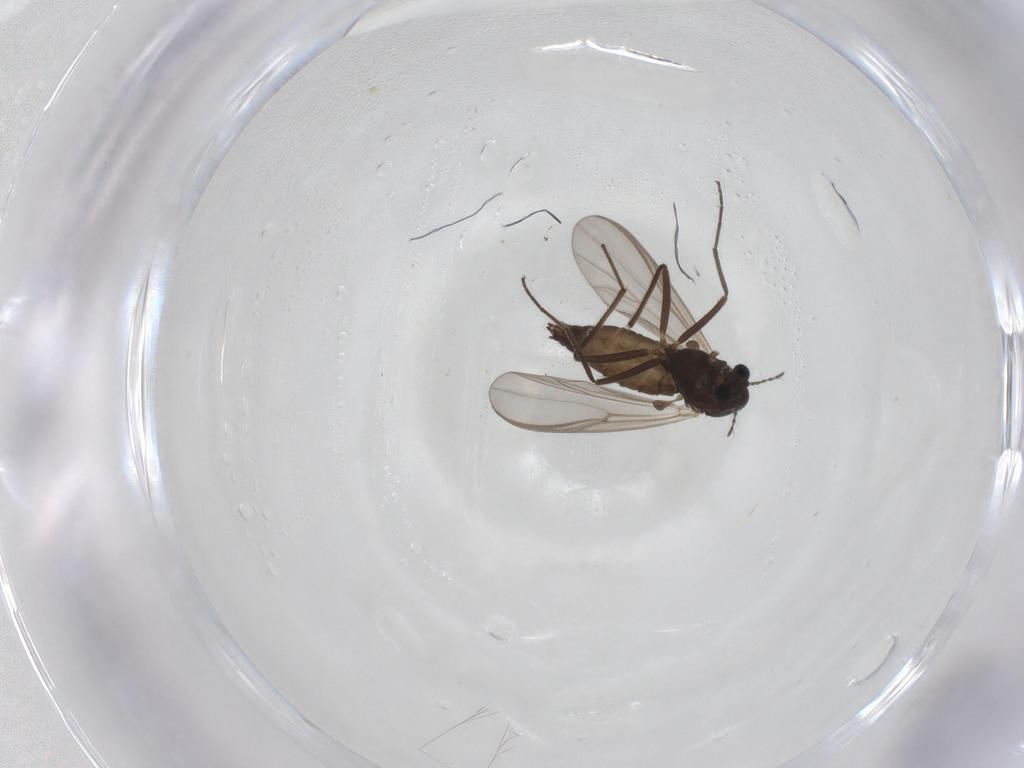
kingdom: Animalia
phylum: Arthropoda
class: Insecta
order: Diptera
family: Chironomidae
